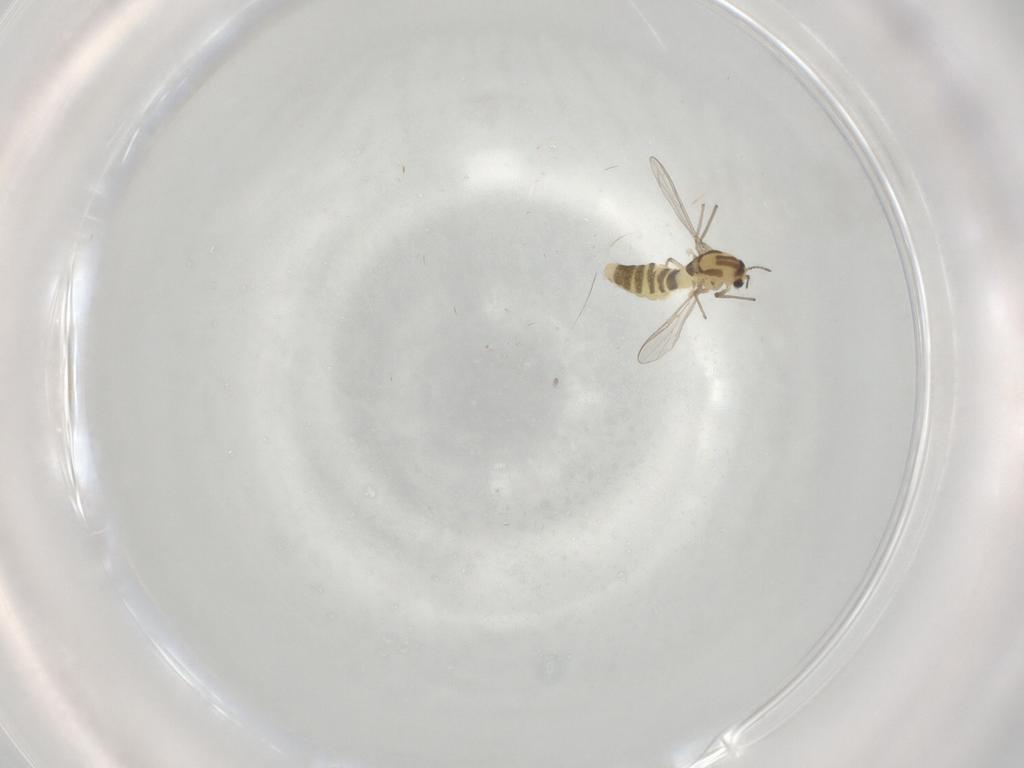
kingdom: Animalia
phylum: Arthropoda
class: Insecta
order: Diptera
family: Chironomidae
